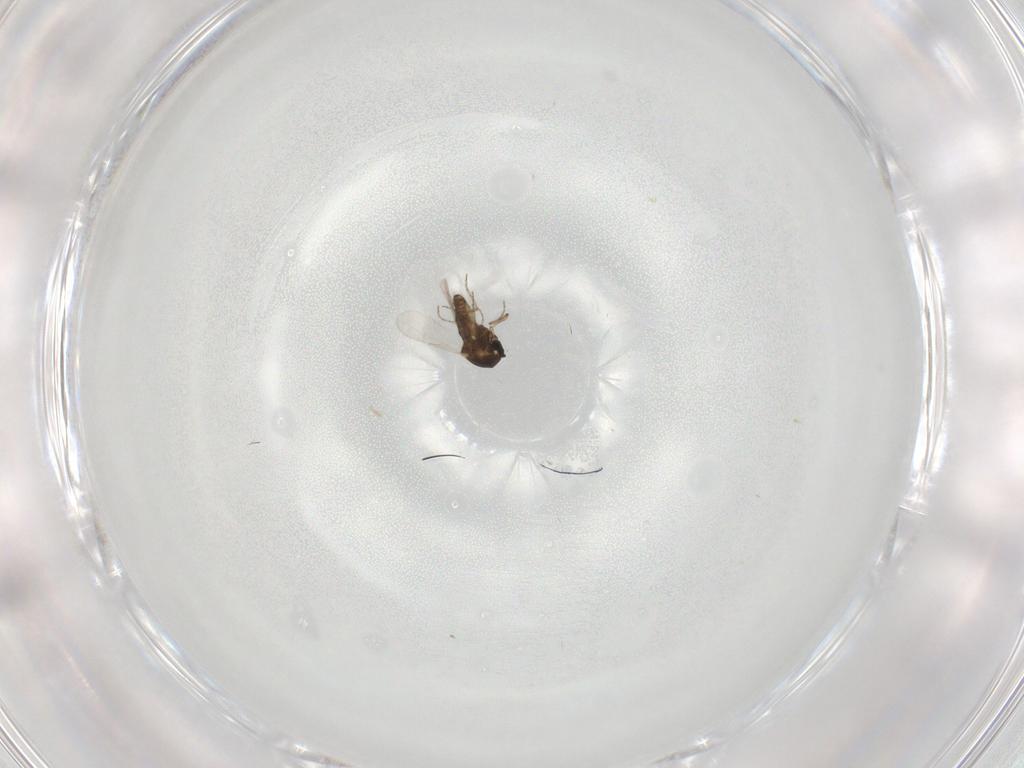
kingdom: Animalia
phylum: Arthropoda
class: Insecta
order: Diptera
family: Ceratopogonidae
